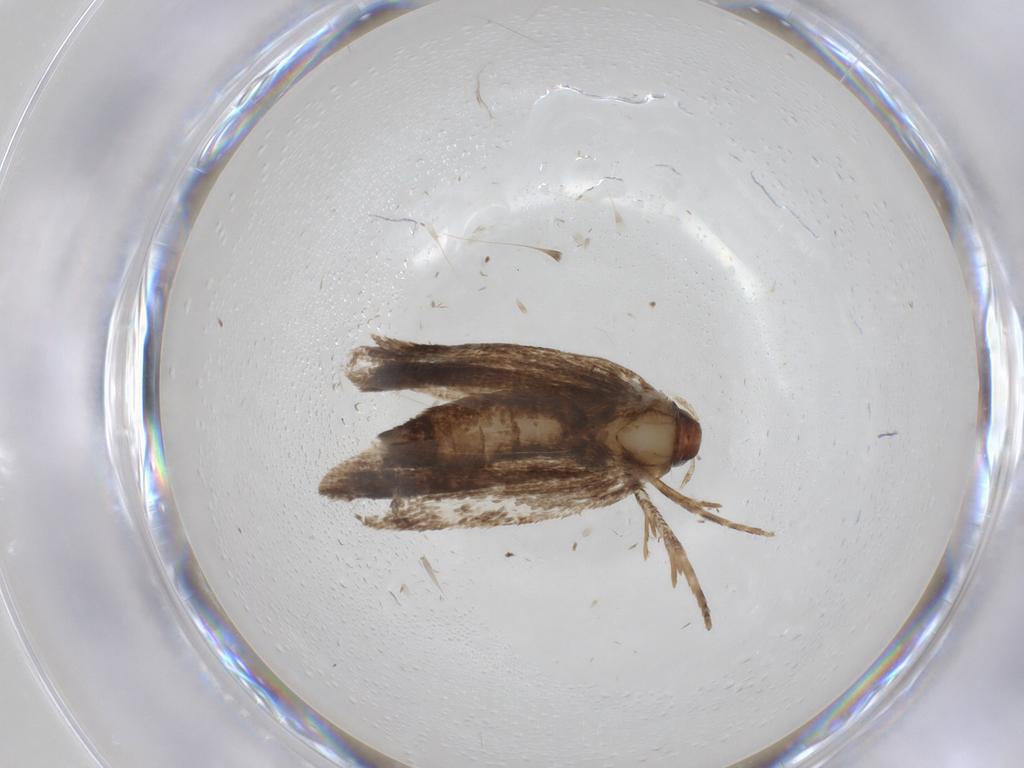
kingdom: Animalia
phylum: Arthropoda
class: Insecta
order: Lepidoptera
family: Gelechiidae
